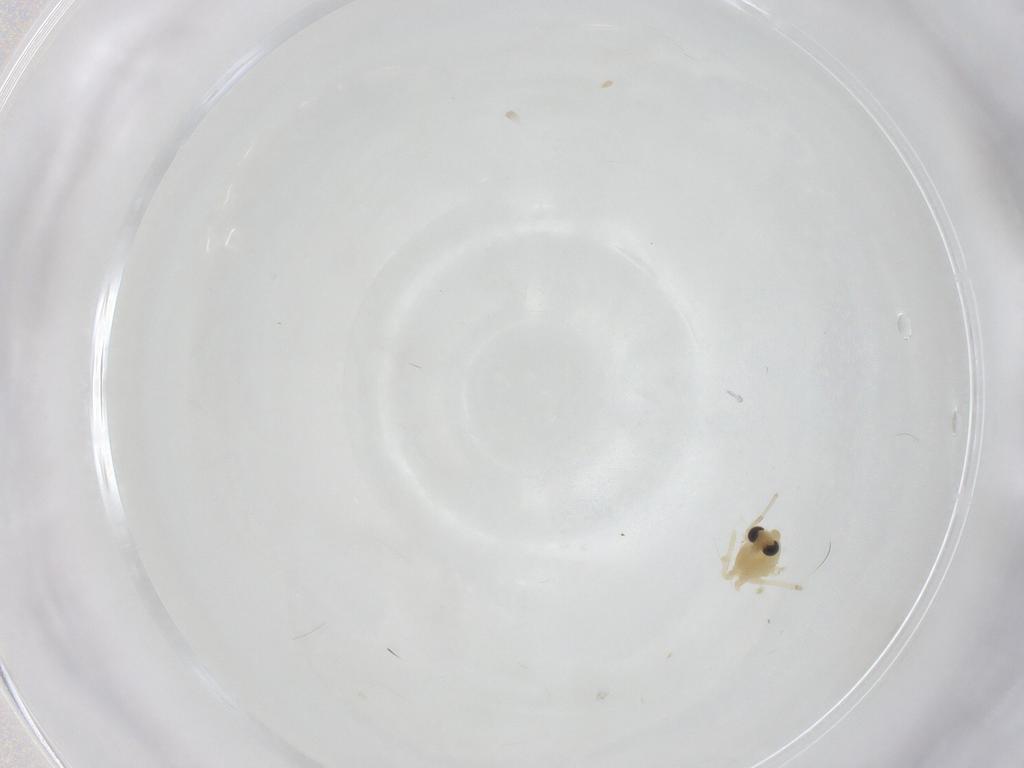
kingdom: Animalia
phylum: Arthropoda
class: Insecta
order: Diptera
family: Chironomidae
